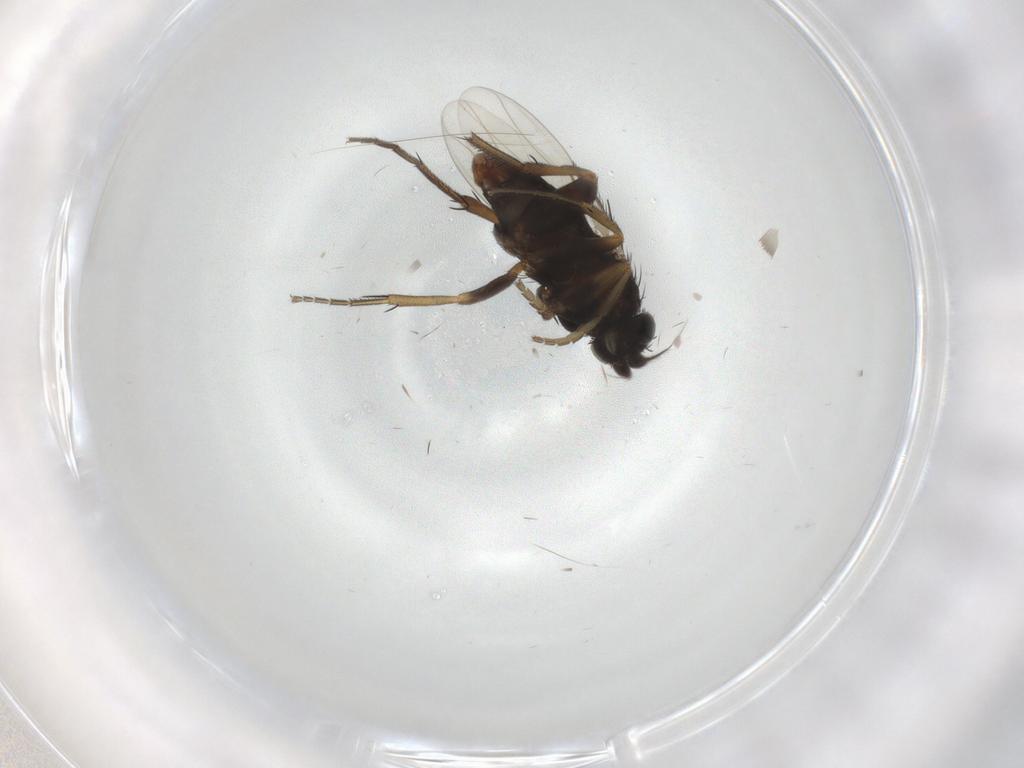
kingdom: Animalia
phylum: Arthropoda
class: Insecta
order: Diptera
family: Phoridae
